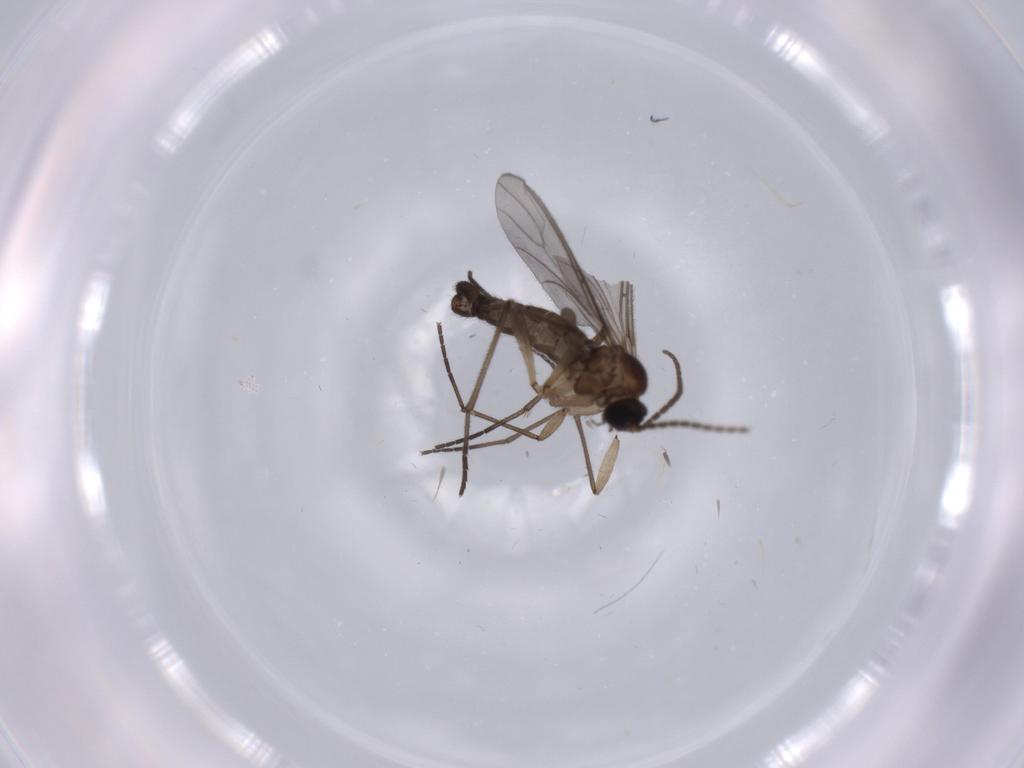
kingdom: Animalia
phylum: Arthropoda
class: Insecta
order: Diptera
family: Sciaridae
